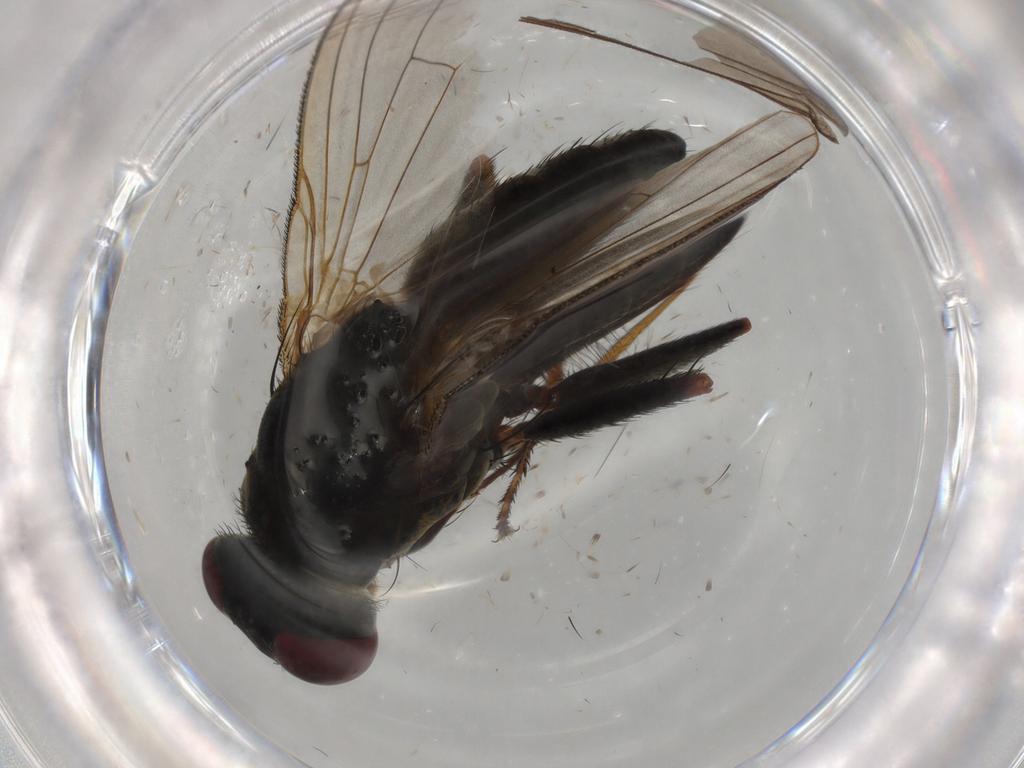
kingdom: Animalia
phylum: Arthropoda
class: Insecta
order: Diptera
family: Muscidae
